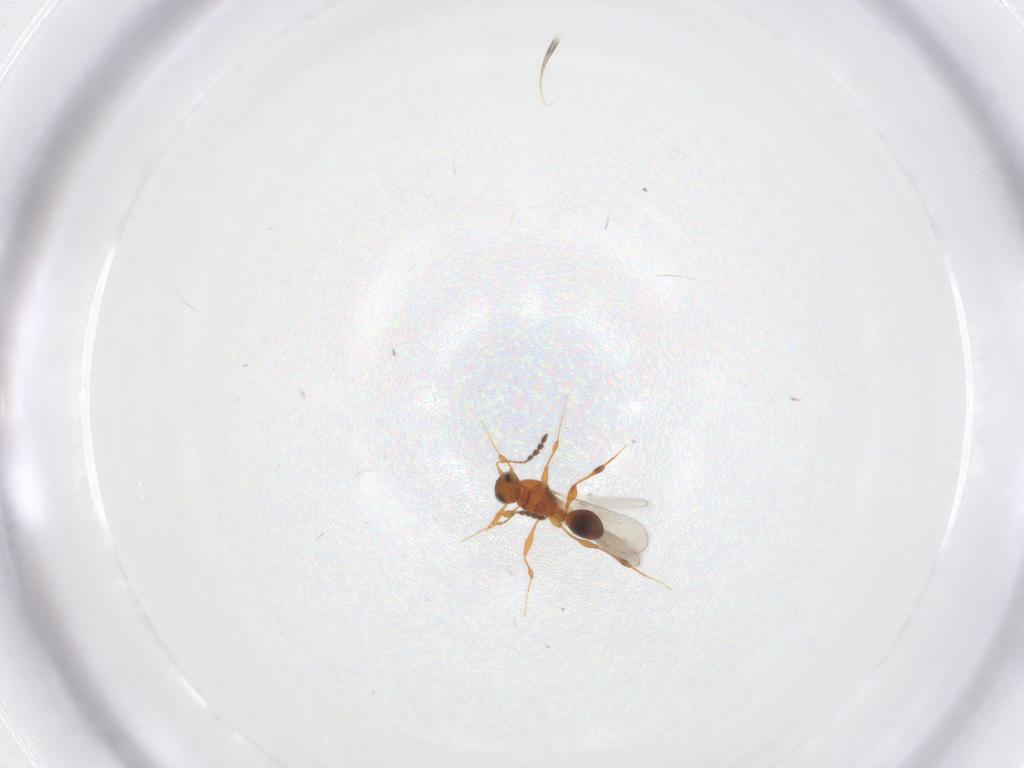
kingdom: Animalia
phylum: Arthropoda
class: Insecta
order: Hymenoptera
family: Platygastridae
